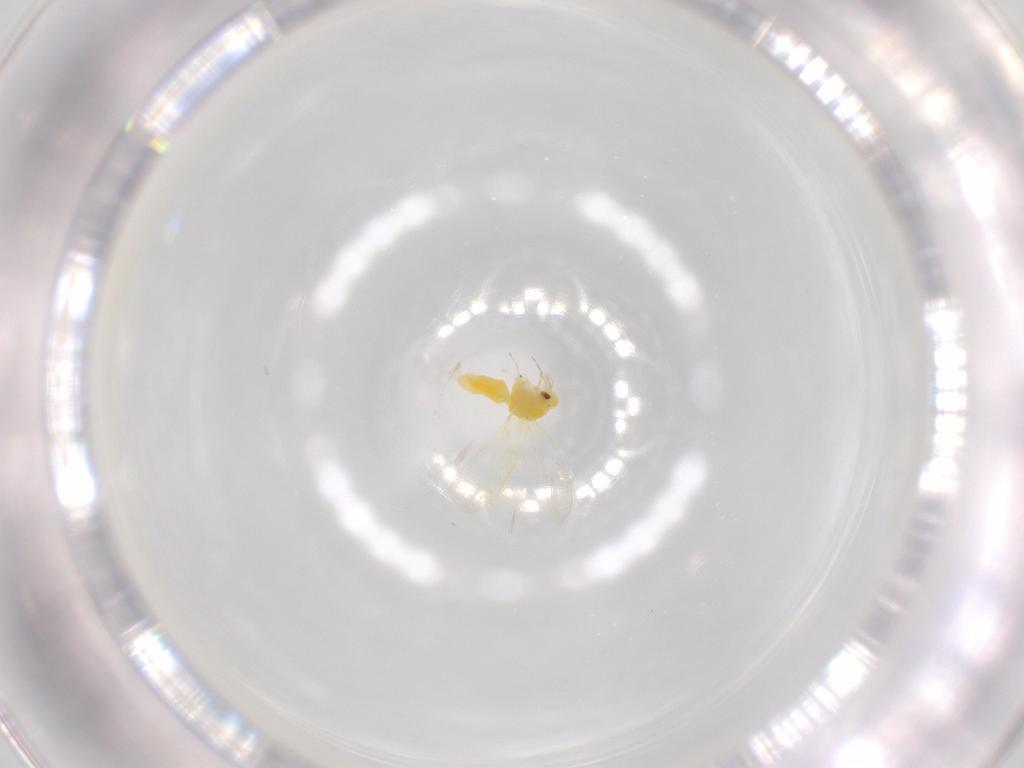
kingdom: Animalia
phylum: Arthropoda
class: Insecta
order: Hemiptera
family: Aleyrodidae
